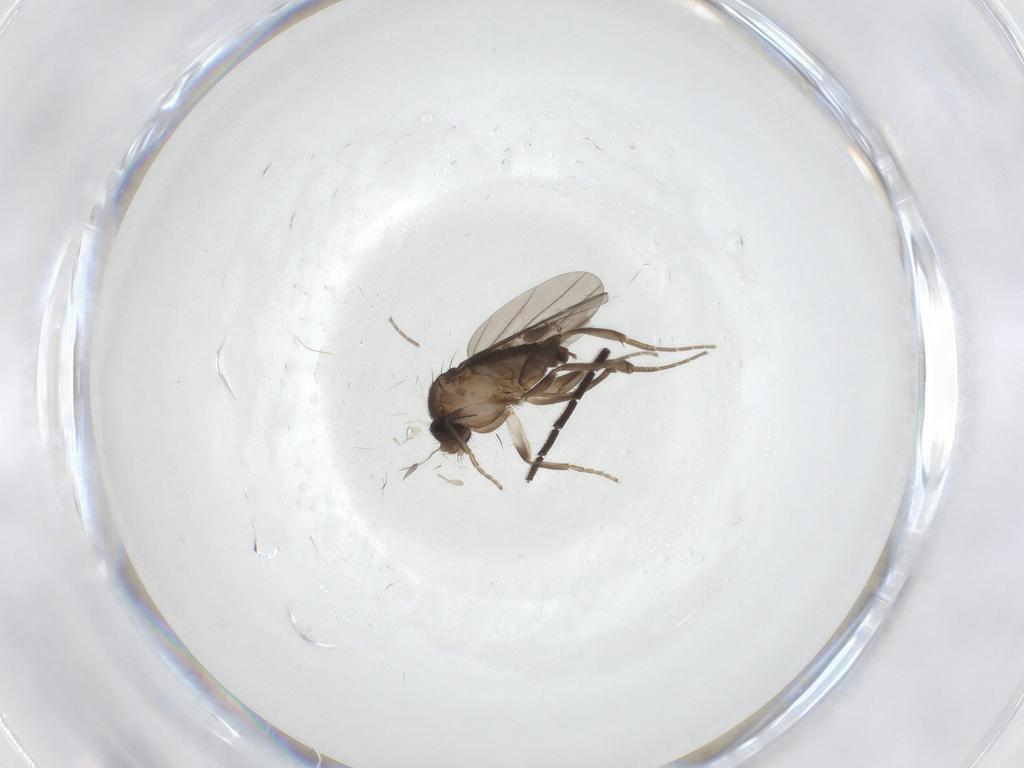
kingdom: Animalia
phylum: Arthropoda
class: Insecta
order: Diptera
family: Sciaridae
